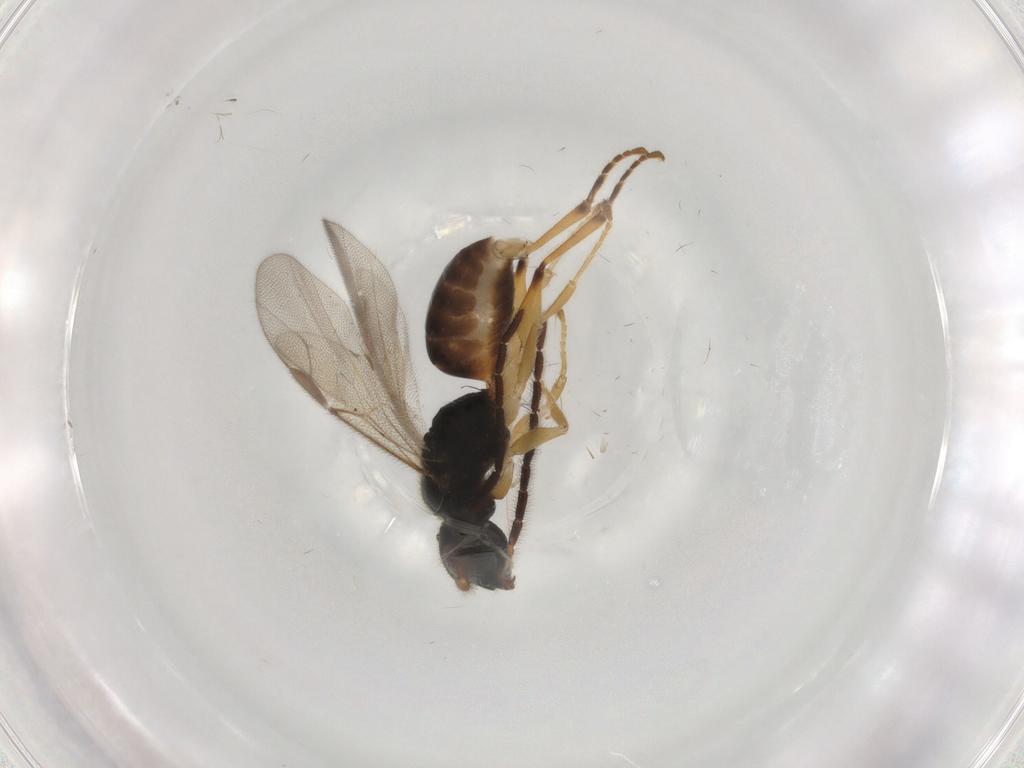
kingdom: Animalia
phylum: Arthropoda
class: Insecta
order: Hymenoptera
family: Dryinidae
